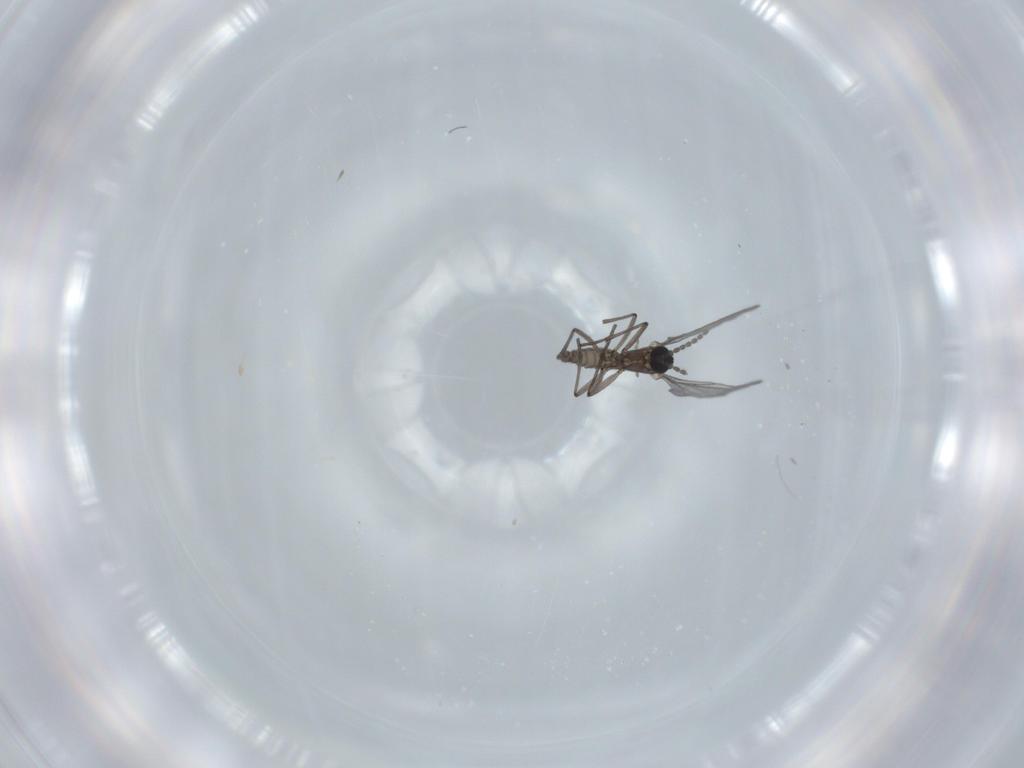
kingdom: Animalia
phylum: Arthropoda
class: Insecta
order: Diptera
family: Sciaridae
